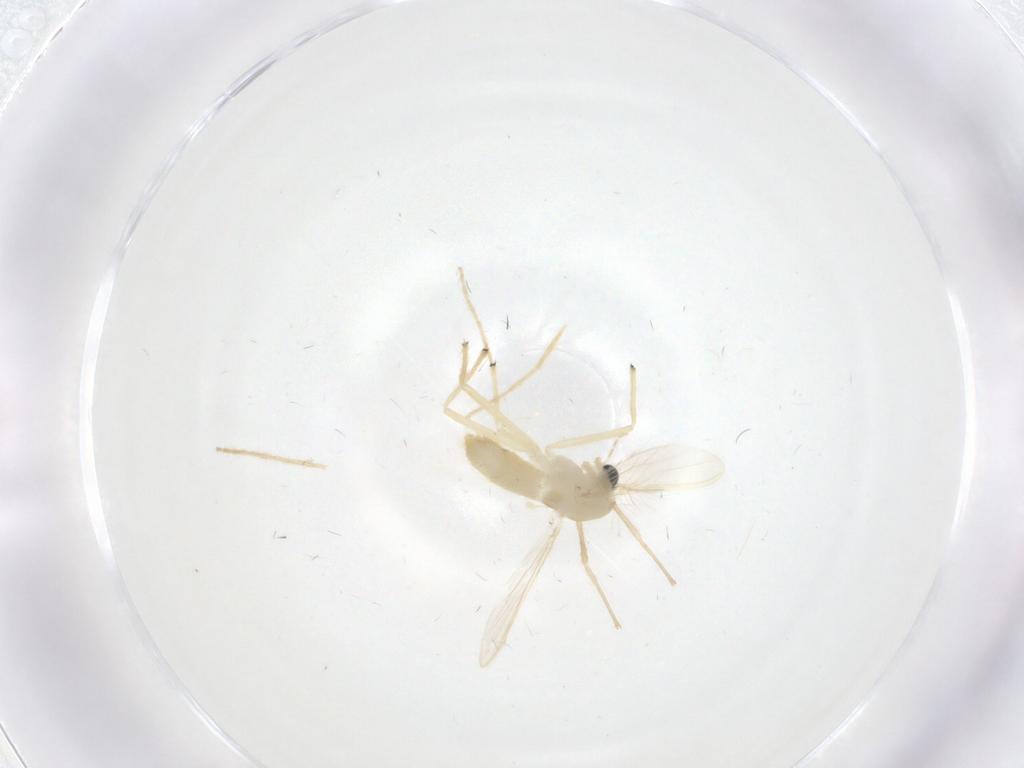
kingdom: Animalia
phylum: Arthropoda
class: Insecta
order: Diptera
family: Chironomidae
